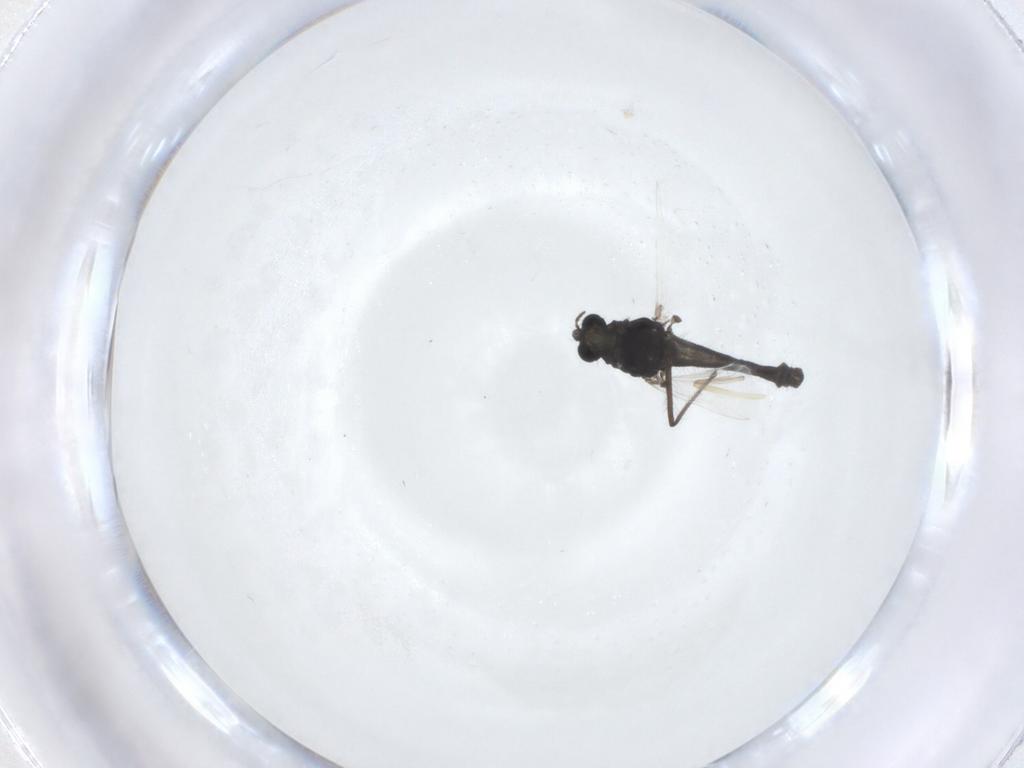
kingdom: Animalia
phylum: Arthropoda
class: Insecta
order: Diptera
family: Chironomidae
